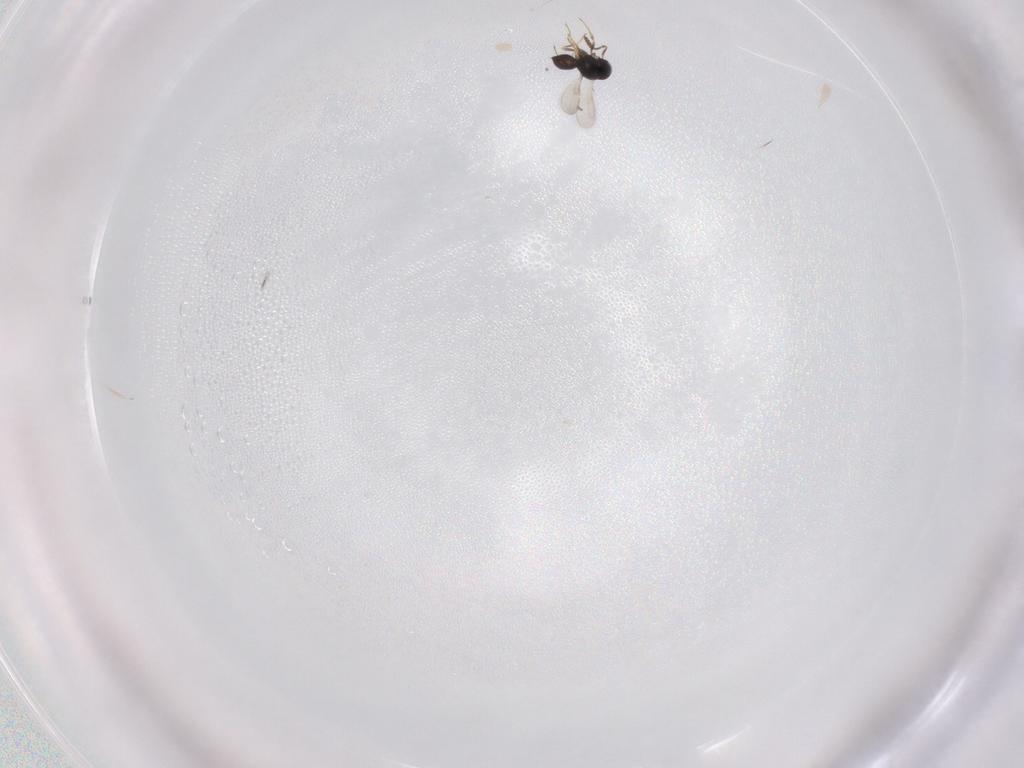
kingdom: Animalia
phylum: Arthropoda
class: Insecta
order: Hymenoptera
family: Scelionidae
